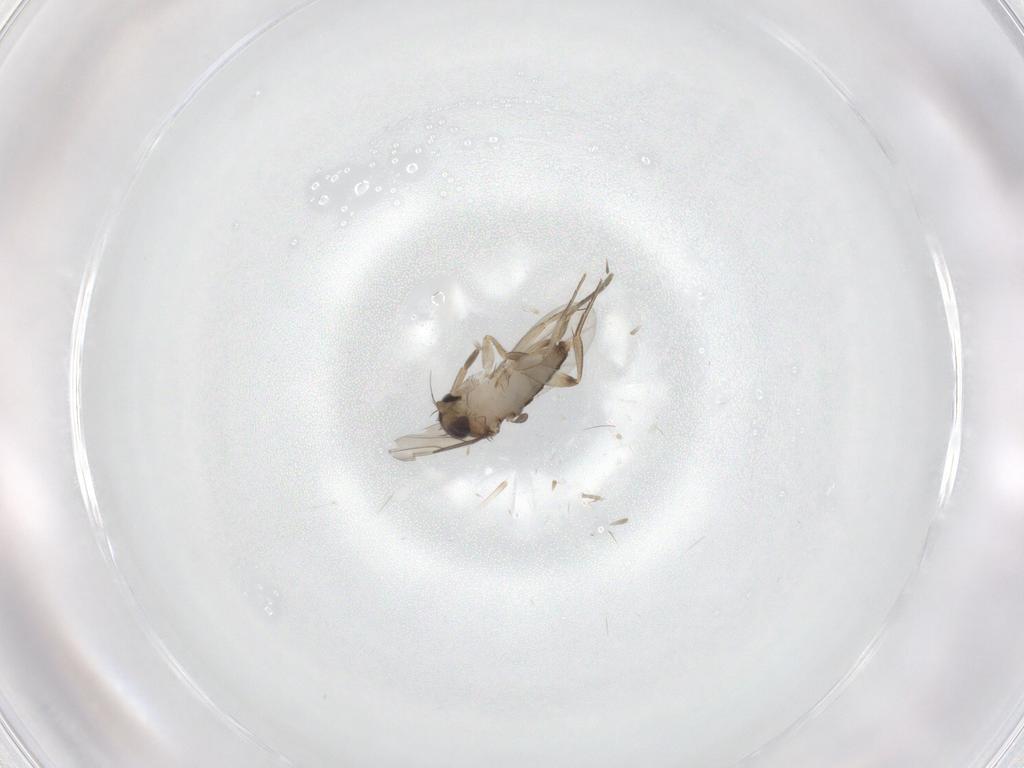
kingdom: Animalia
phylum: Arthropoda
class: Insecta
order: Diptera
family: Phoridae
